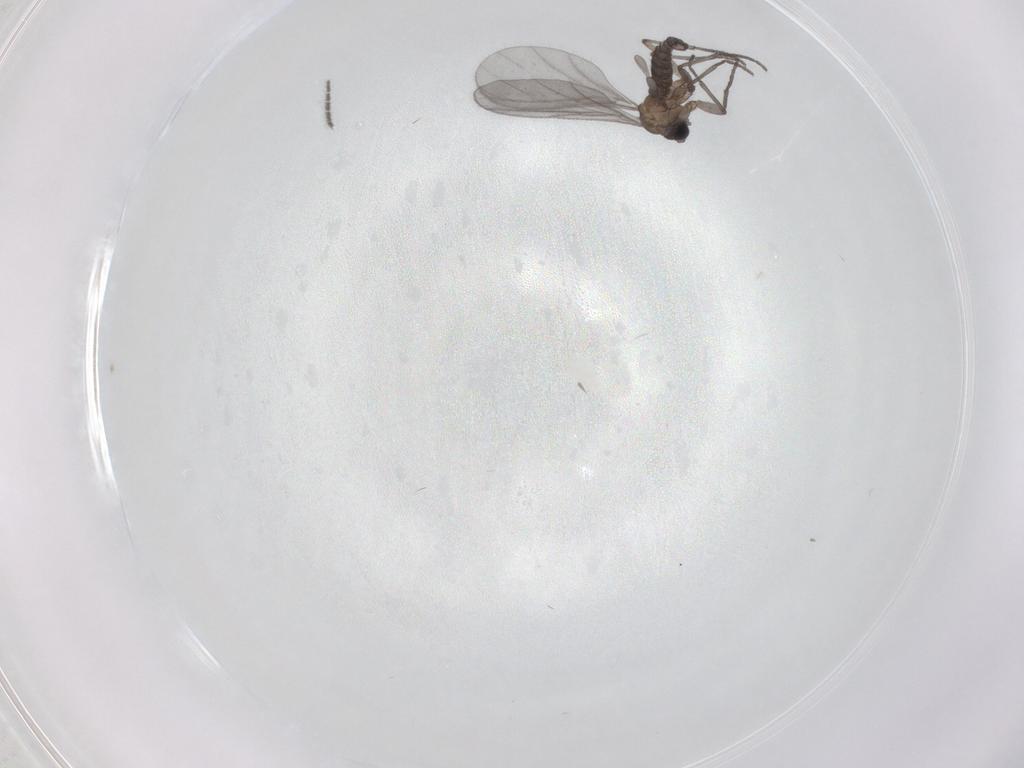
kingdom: Animalia
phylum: Arthropoda
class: Insecta
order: Diptera
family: Sciaridae
